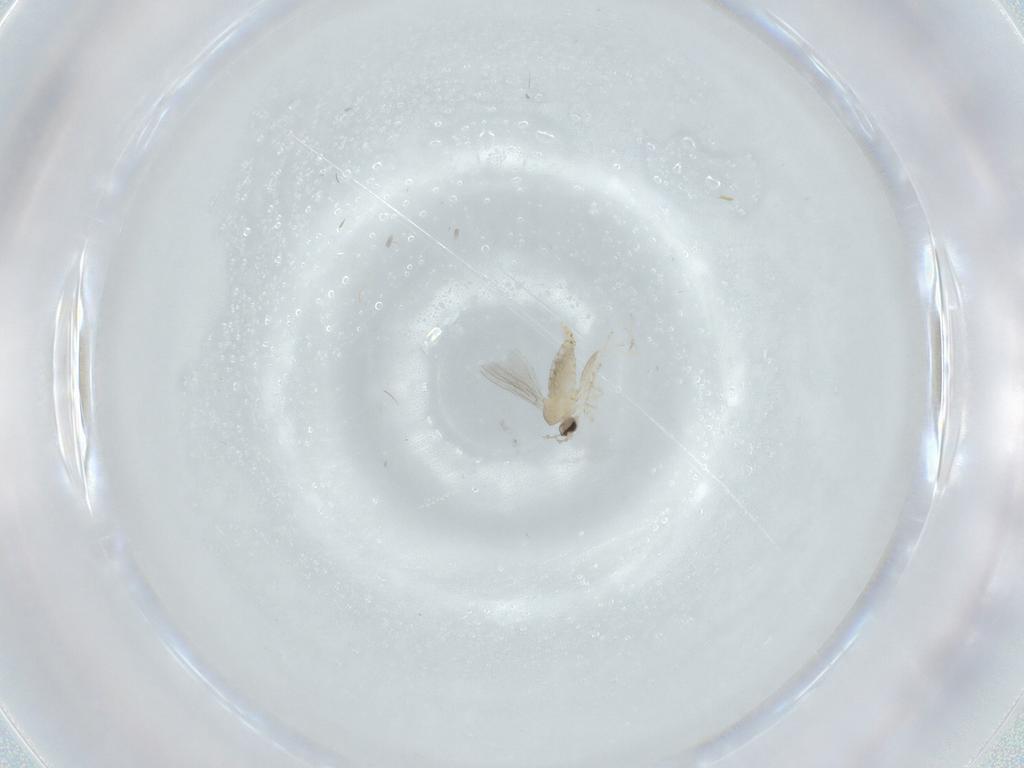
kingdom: Animalia
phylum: Arthropoda
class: Insecta
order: Diptera
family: Cecidomyiidae
